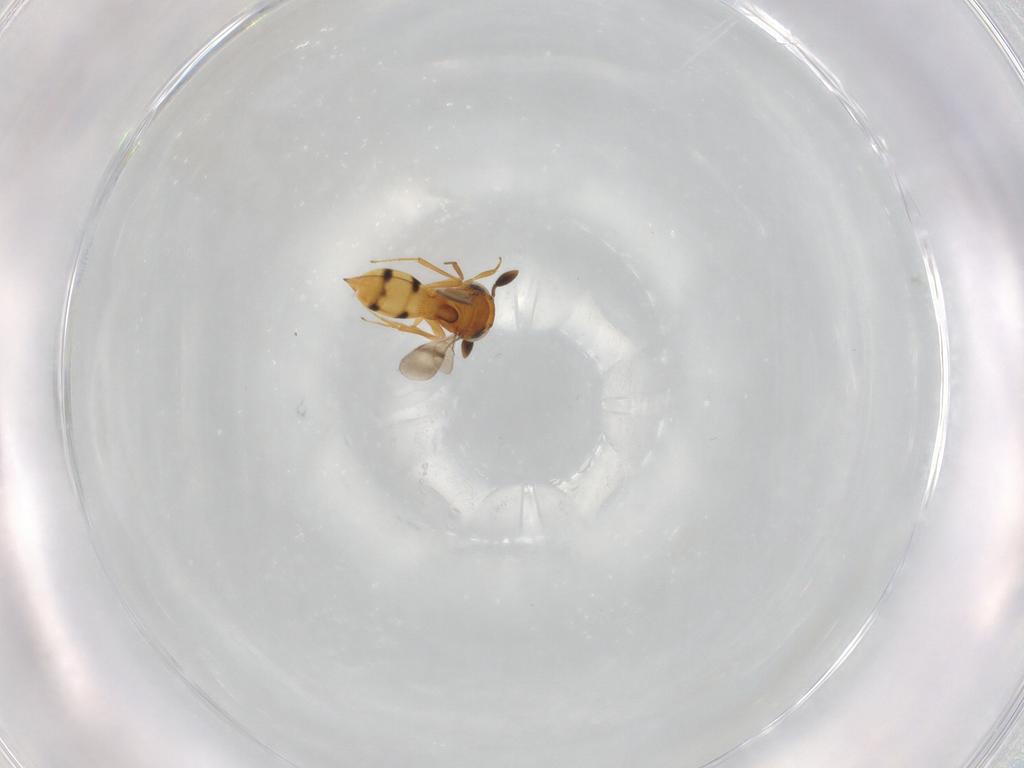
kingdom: Animalia
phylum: Arthropoda
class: Insecta
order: Hymenoptera
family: Scelionidae
